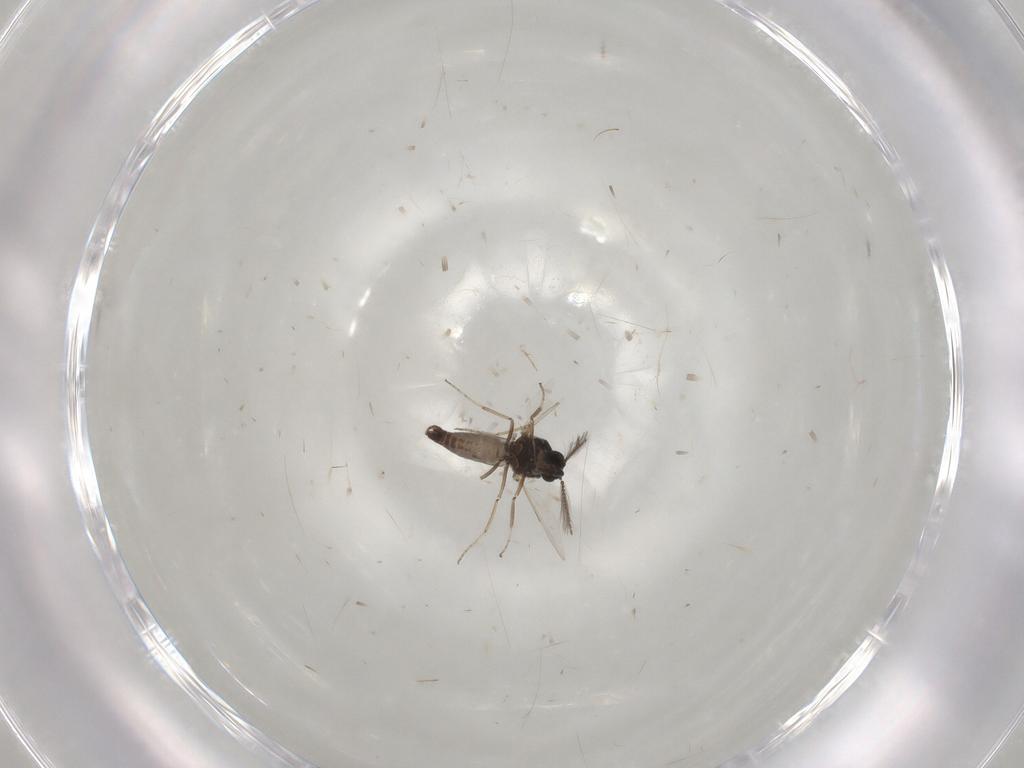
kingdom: Animalia
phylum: Arthropoda
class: Insecta
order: Diptera
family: Ceratopogonidae
